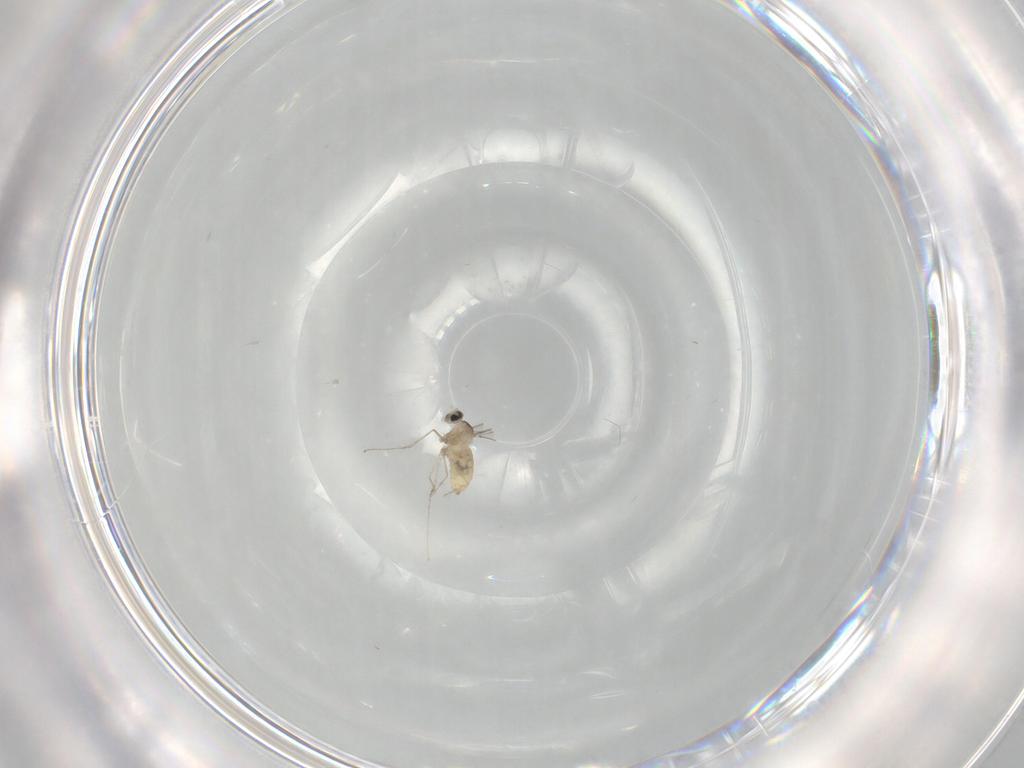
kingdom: Animalia
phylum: Arthropoda
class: Insecta
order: Diptera
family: Cecidomyiidae
